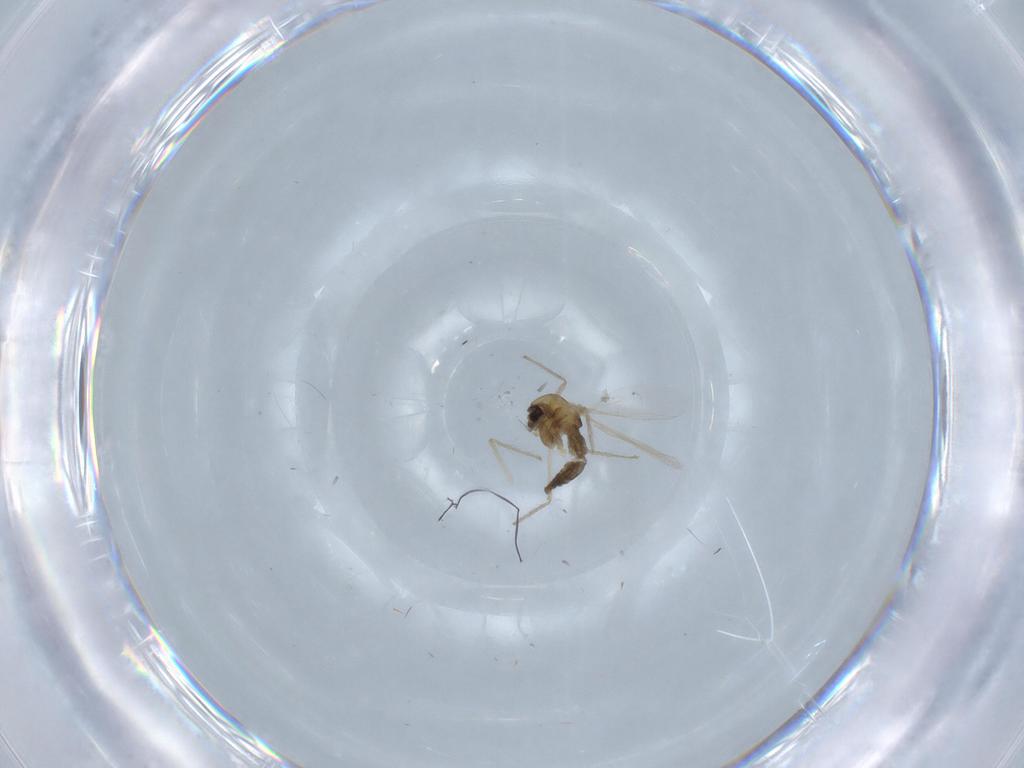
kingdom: Animalia
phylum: Arthropoda
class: Insecta
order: Diptera
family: Chironomidae
